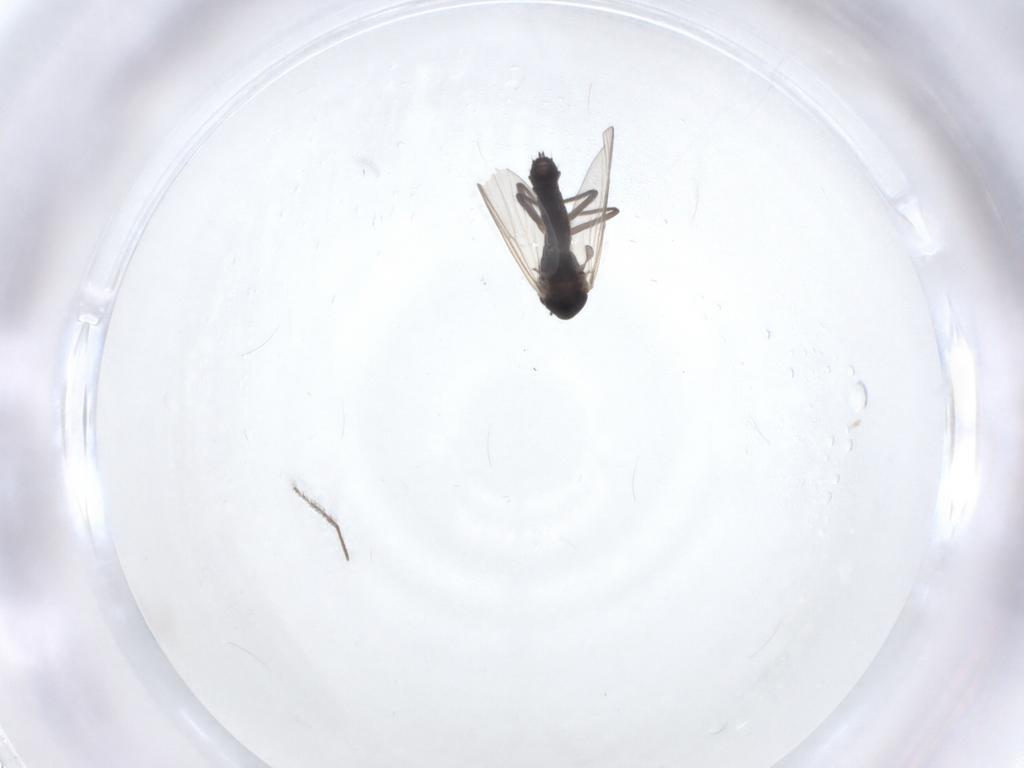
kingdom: Animalia
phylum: Arthropoda
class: Insecta
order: Diptera
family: Chironomidae
